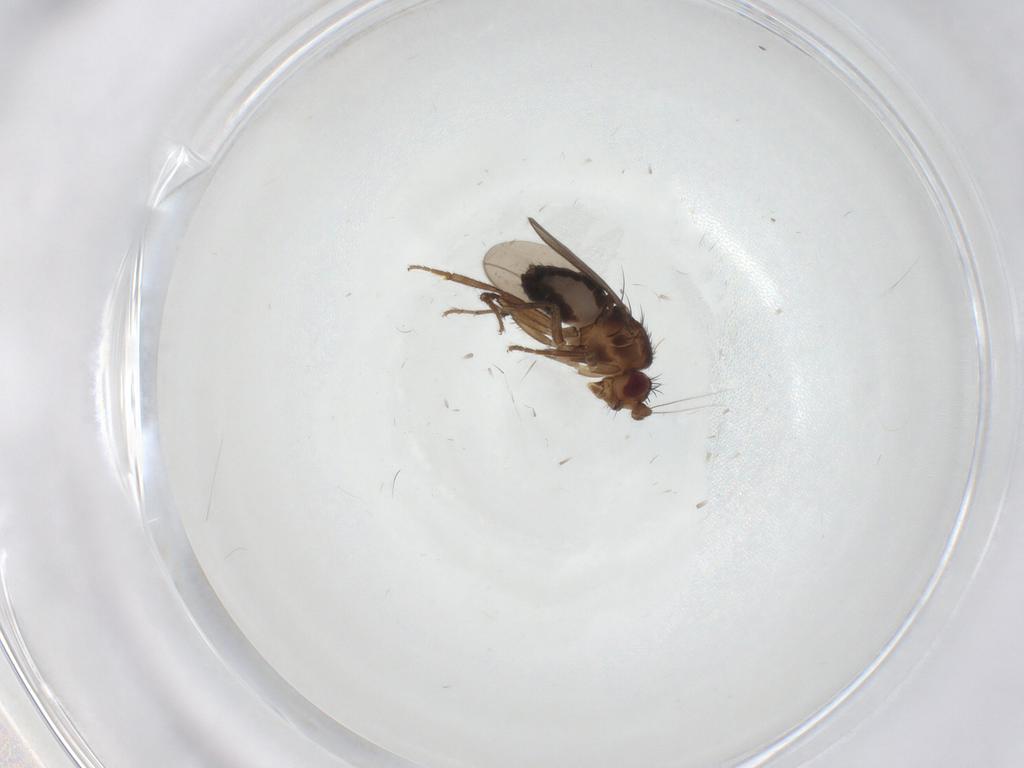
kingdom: Animalia
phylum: Arthropoda
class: Insecta
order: Diptera
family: Sphaeroceridae
